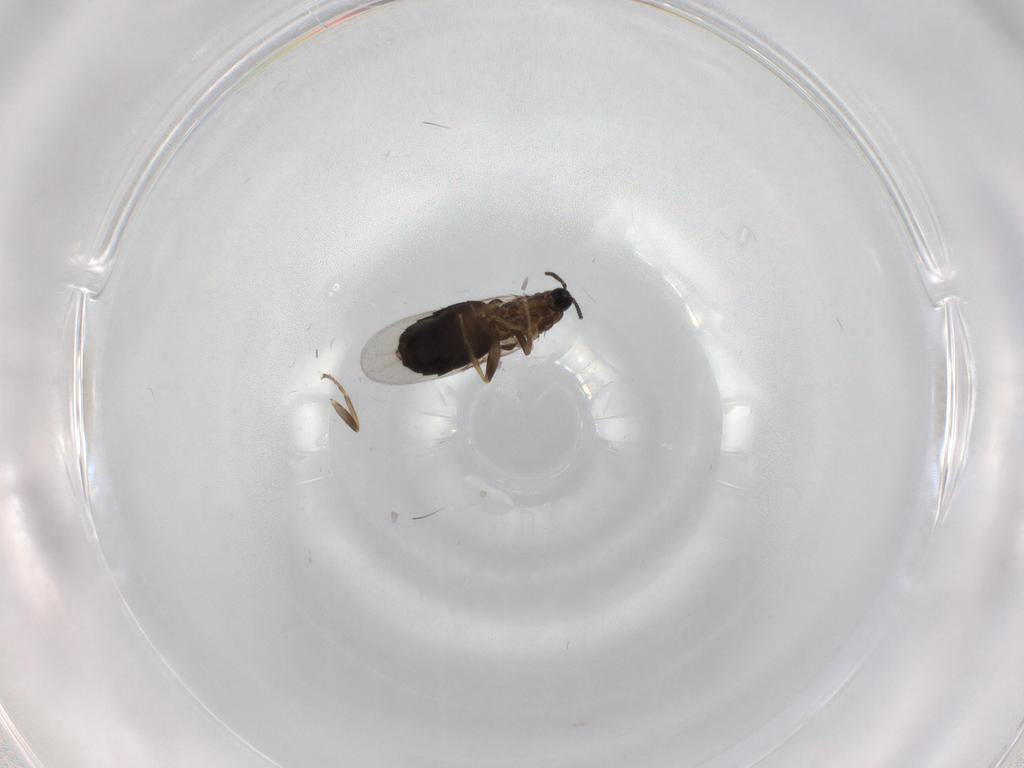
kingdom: Animalia
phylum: Arthropoda
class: Insecta
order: Diptera
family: Scatopsidae
